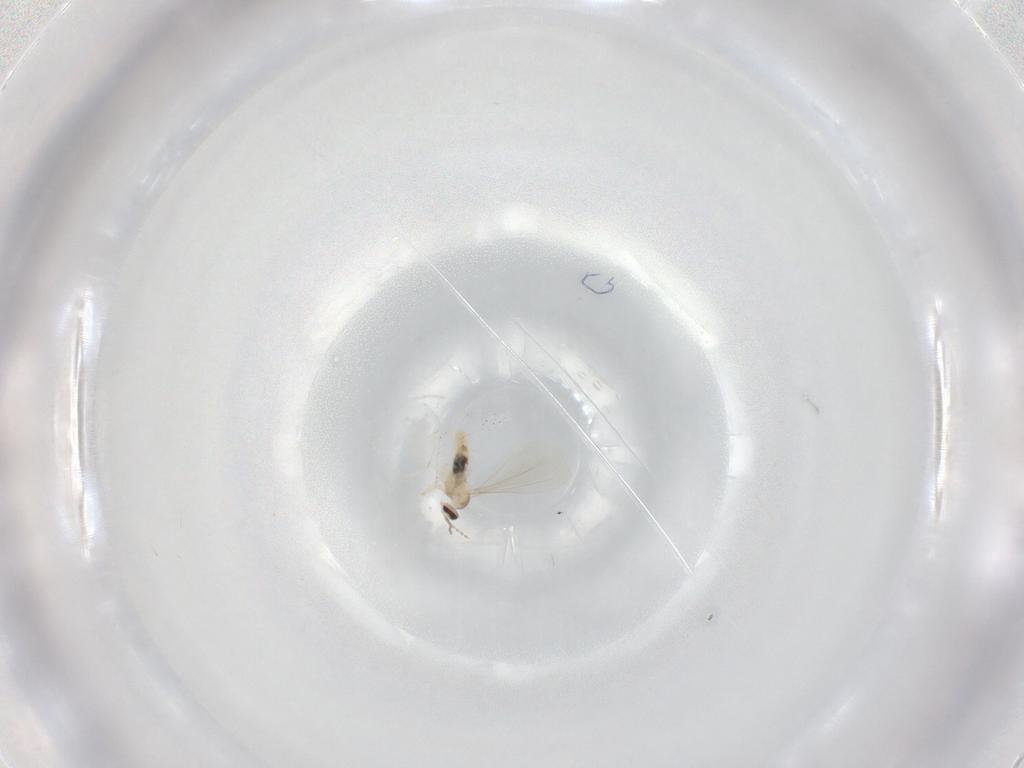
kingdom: Animalia
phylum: Arthropoda
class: Insecta
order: Diptera
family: Cecidomyiidae
